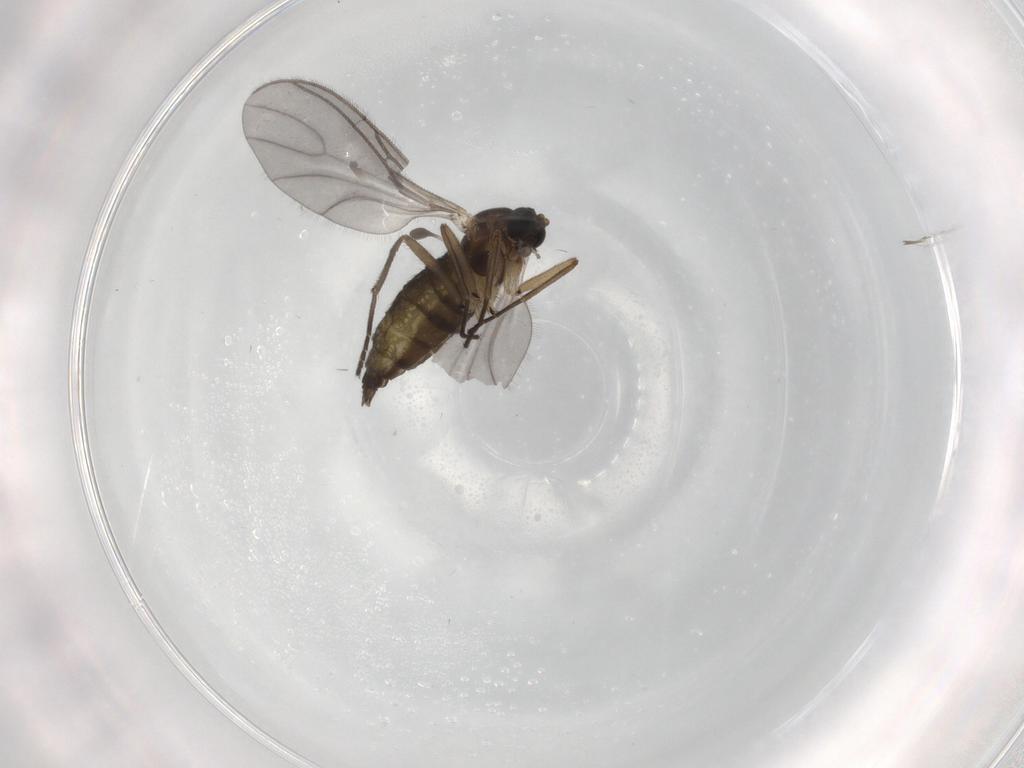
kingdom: Animalia
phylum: Arthropoda
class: Insecta
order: Diptera
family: Sciaridae
